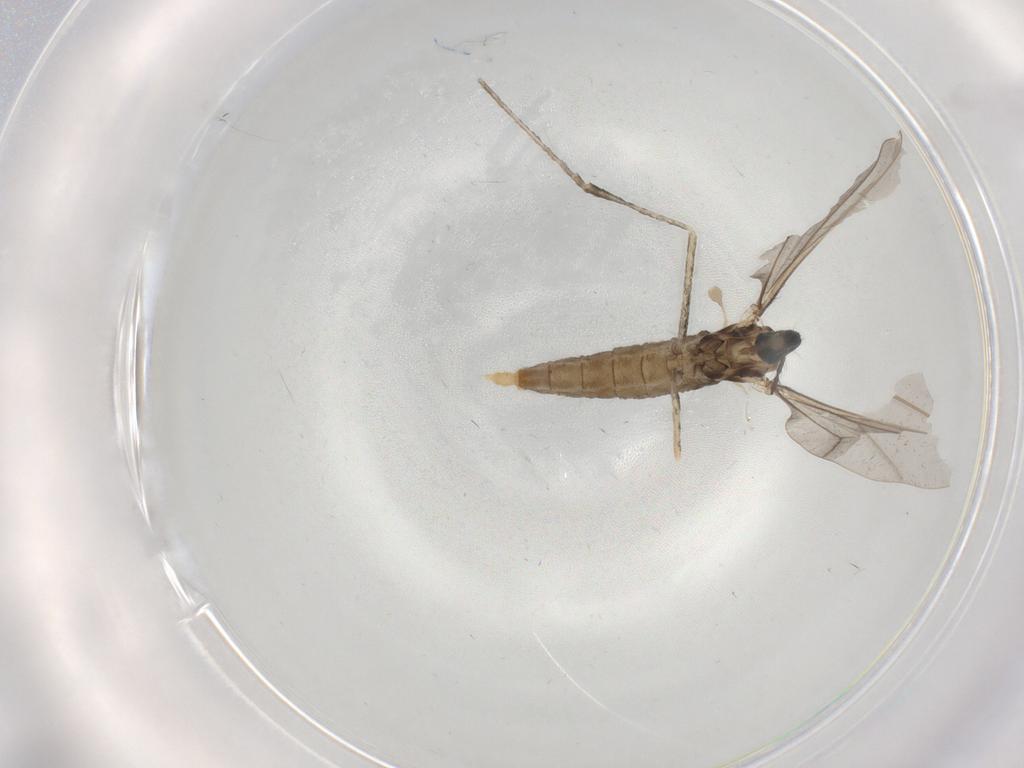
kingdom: Animalia
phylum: Arthropoda
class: Insecta
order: Diptera
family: Cecidomyiidae
